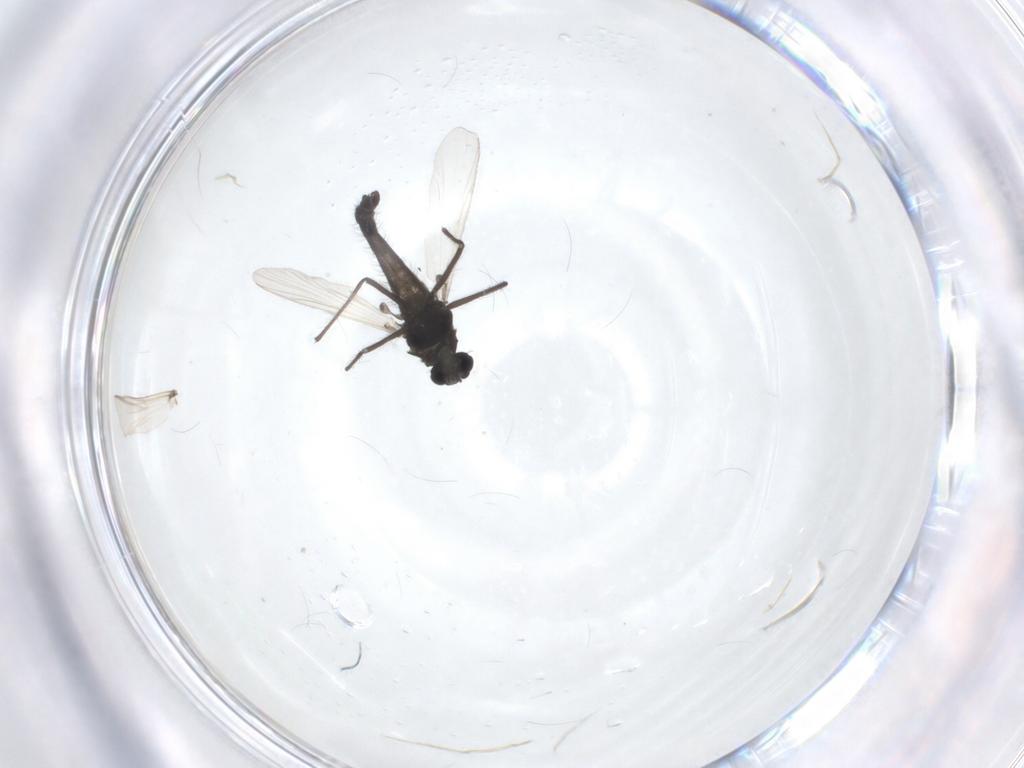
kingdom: Animalia
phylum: Arthropoda
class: Insecta
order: Diptera
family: Chironomidae
